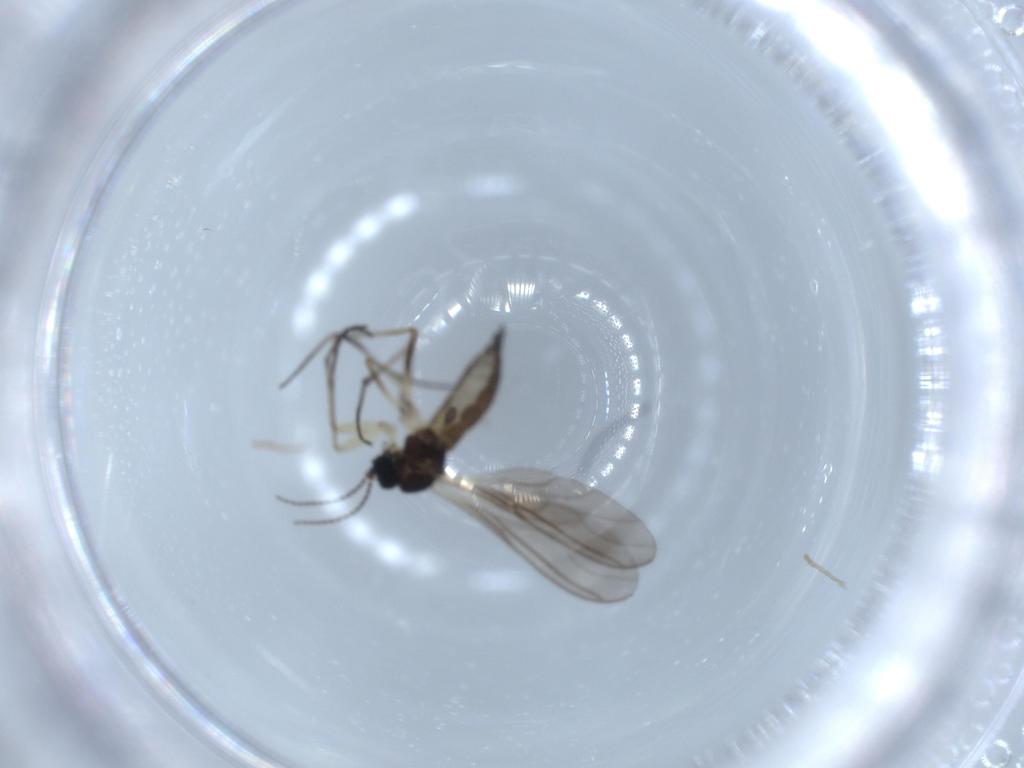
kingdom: Animalia
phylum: Arthropoda
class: Insecta
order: Diptera
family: Sciaridae
